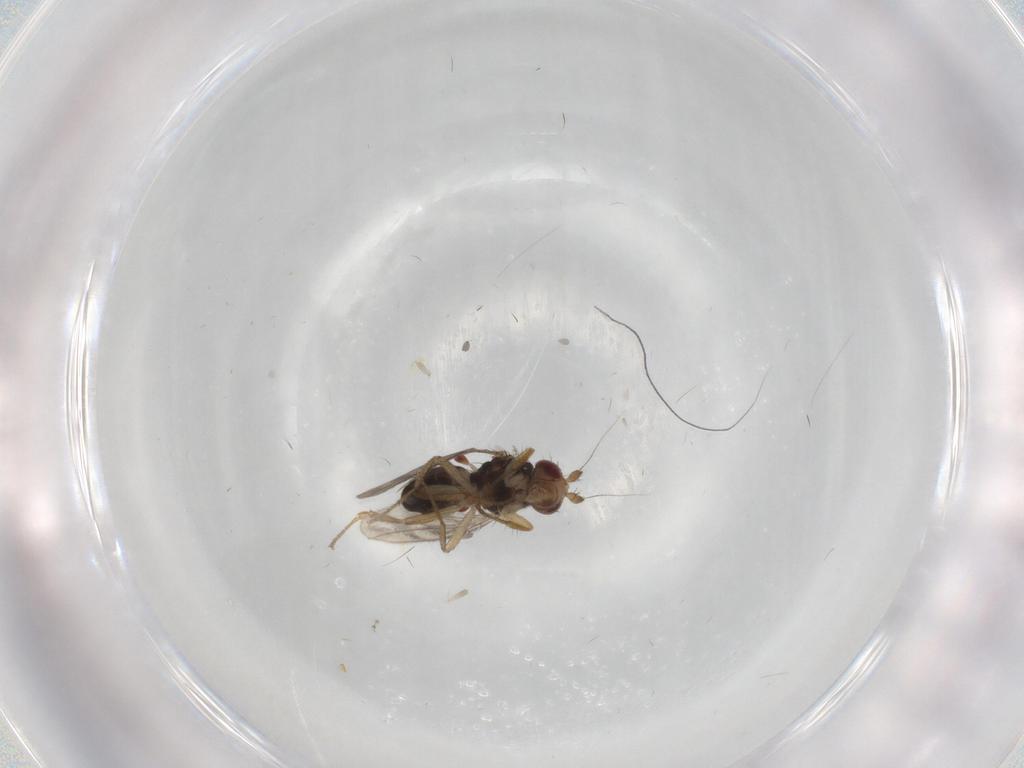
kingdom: Animalia
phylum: Arthropoda
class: Insecta
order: Diptera
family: Sphaeroceridae
